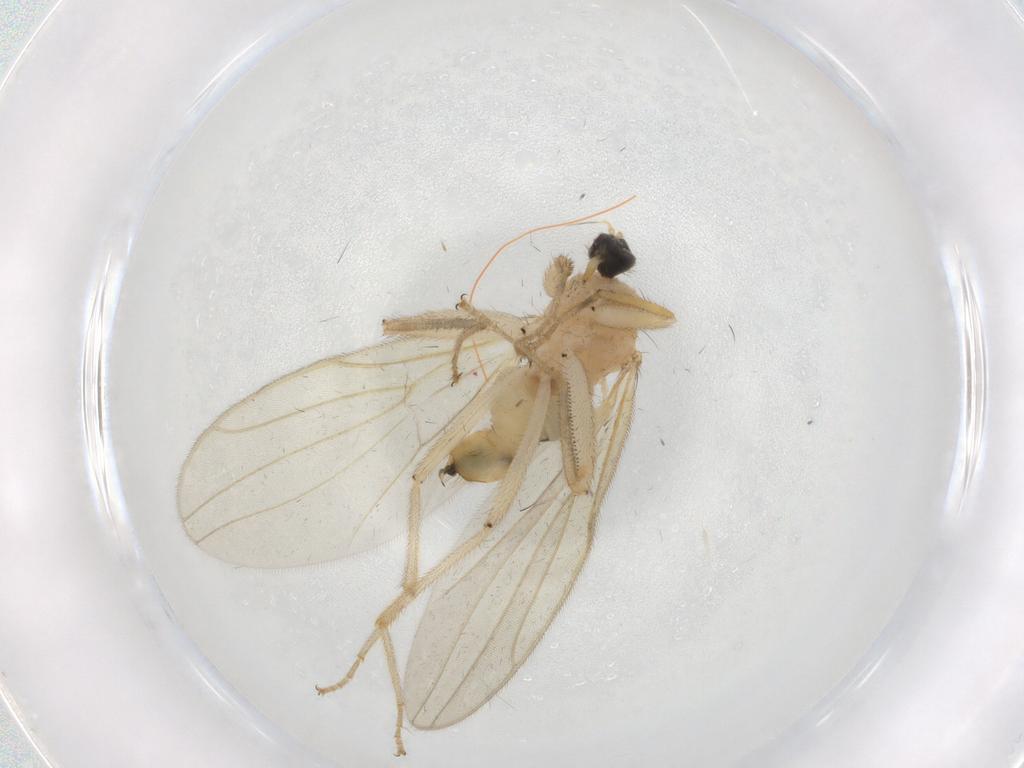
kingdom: Animalia
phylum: Arthropoda
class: Insecta
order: Diptera
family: Hybotidae
